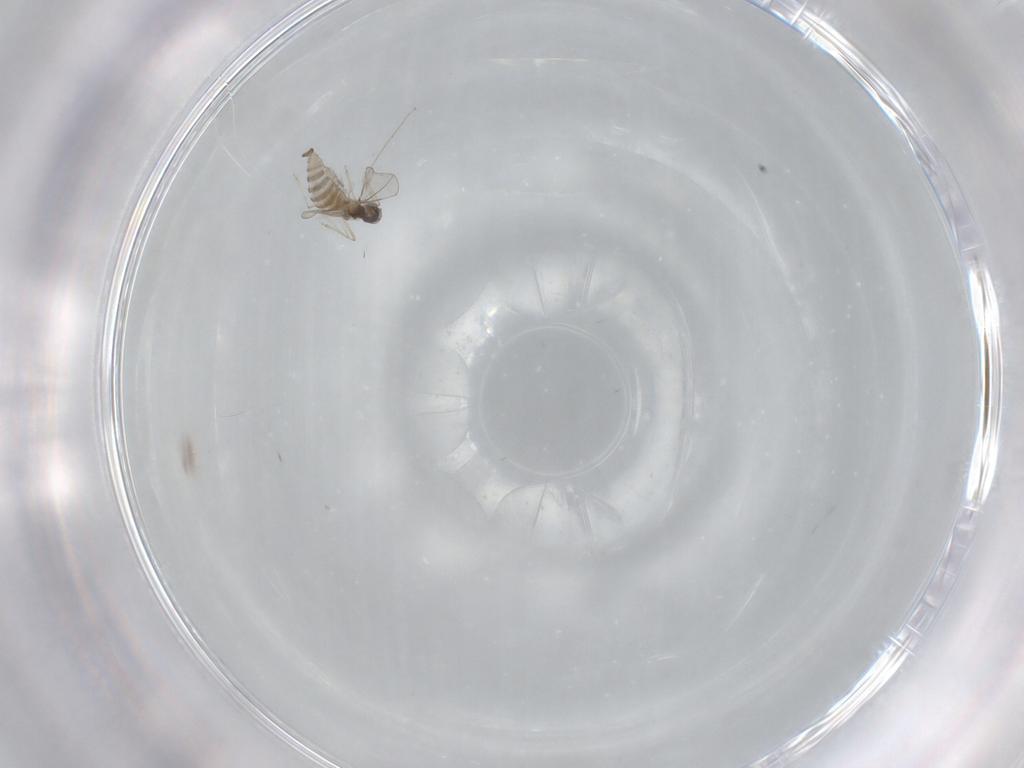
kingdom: Animalia
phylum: Arthropoda
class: Insecta
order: Diptera
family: Cecidomyiidae
